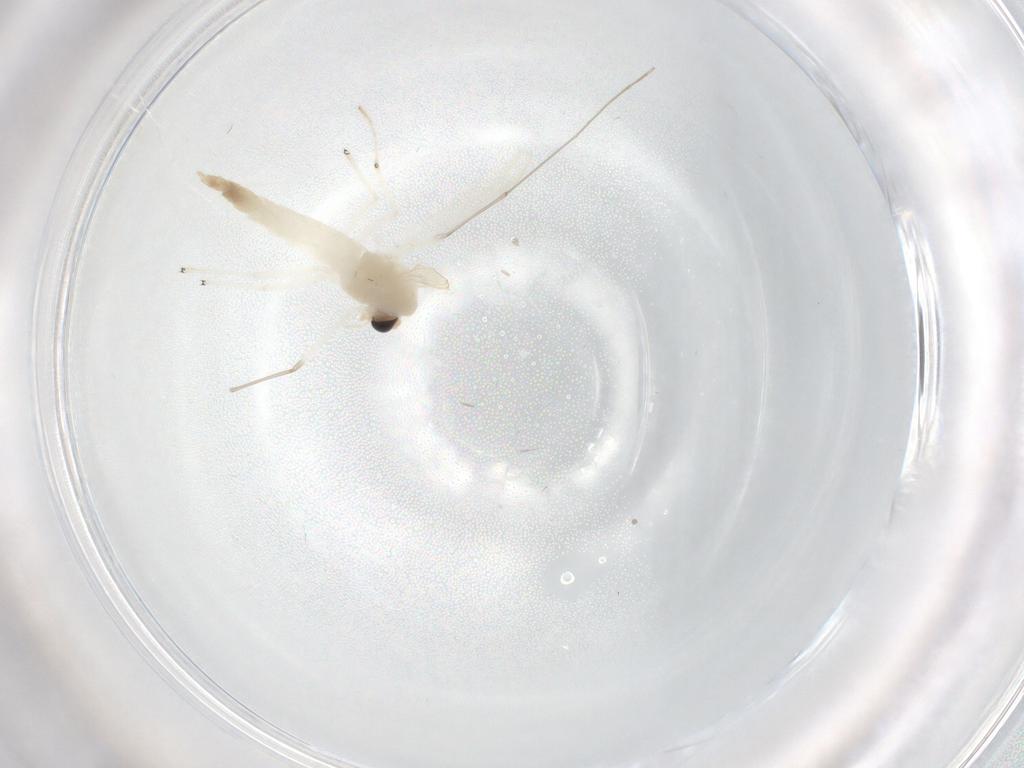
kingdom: Animalia
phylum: Arthropoda
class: Insecta
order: Diptera
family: Chironomidae
